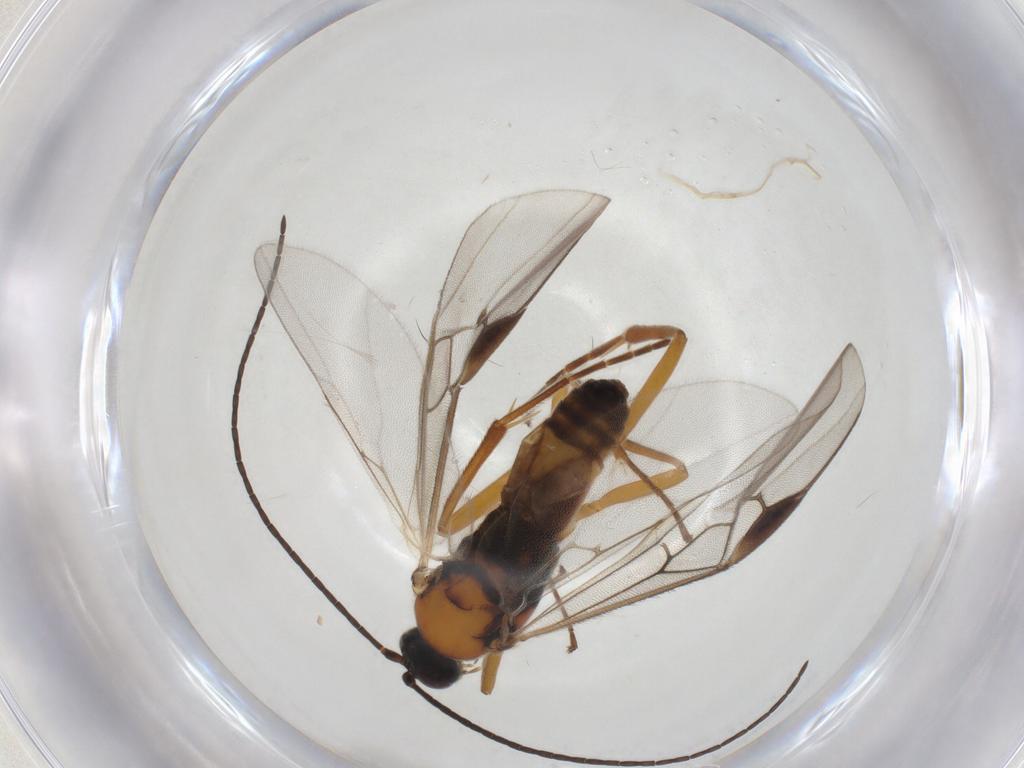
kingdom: Animalia
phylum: Arthropoda
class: Insecta
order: Hymenoptera
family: Braconidae
